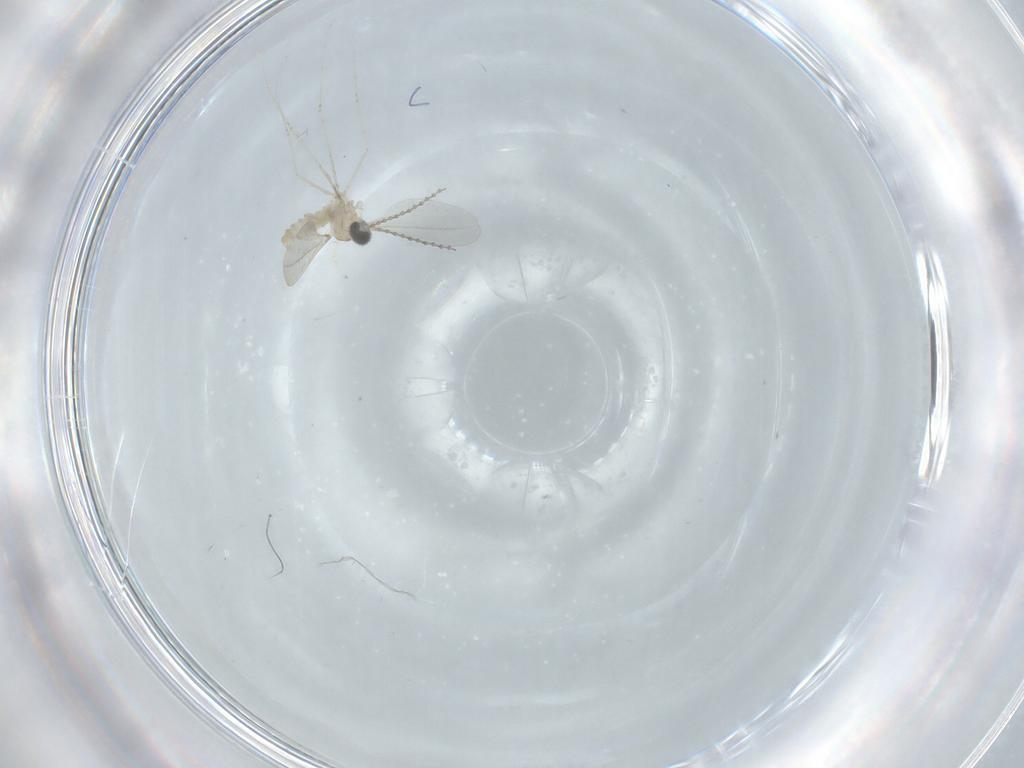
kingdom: Animalia
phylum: Arthropoda
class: Insecta
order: Diptera
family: Cecidomyiidae
